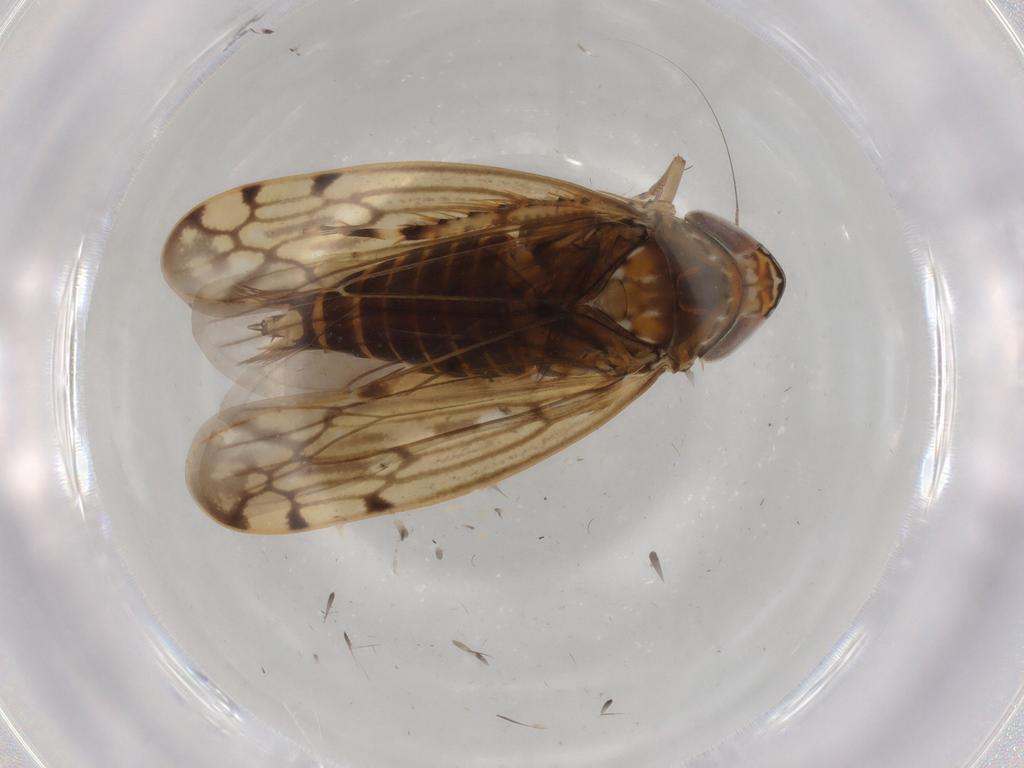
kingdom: Animalia
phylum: Arthropoda
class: Insecta
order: Hemiptera
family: Cicadellidae
